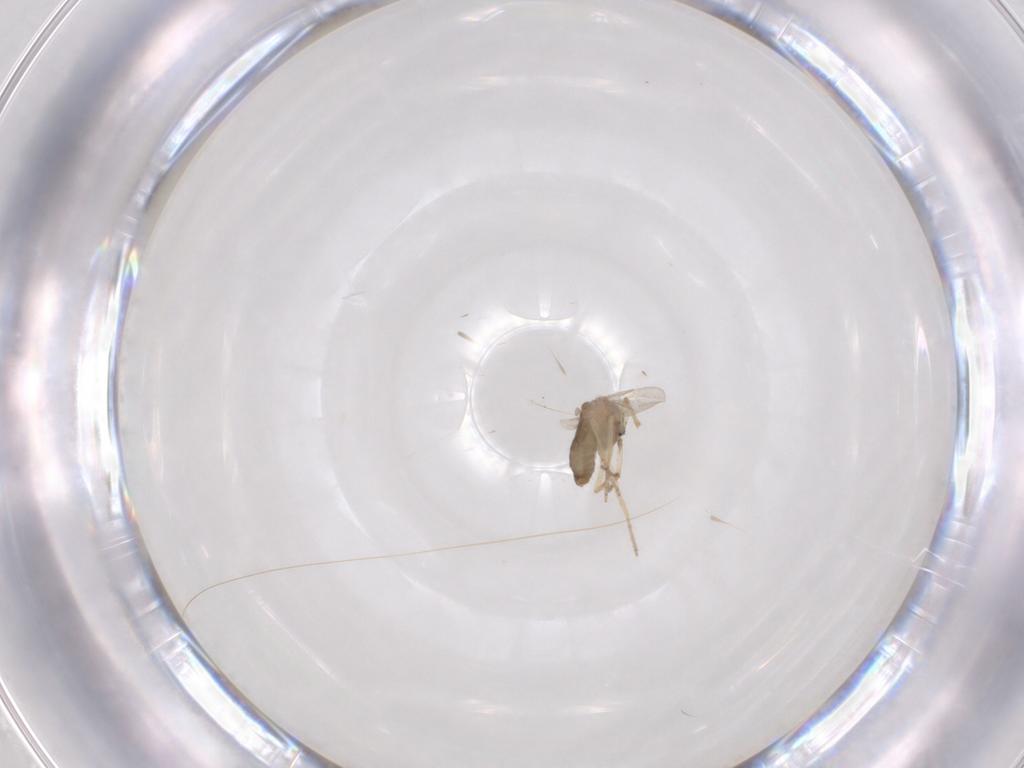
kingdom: Animalia
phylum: Arthropoda
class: Insecta
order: Diptera
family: Ceratopogonidae
